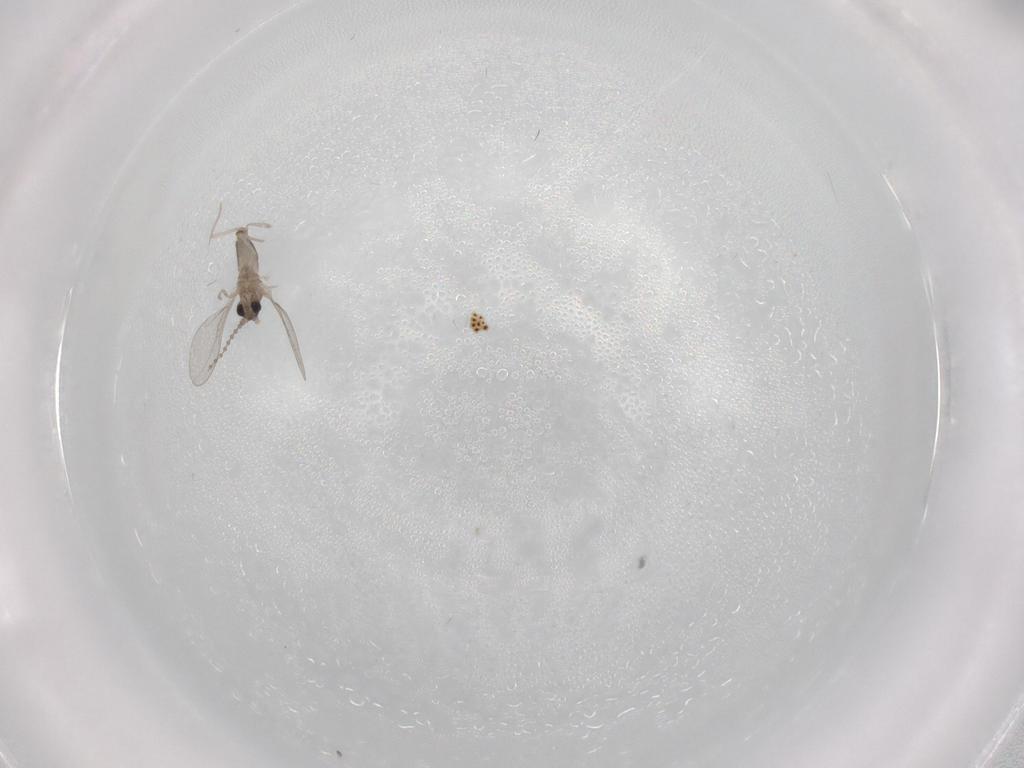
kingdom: Animalia
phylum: Arthropoda
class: Insecta
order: Diptera
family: Cecidomyiidae
